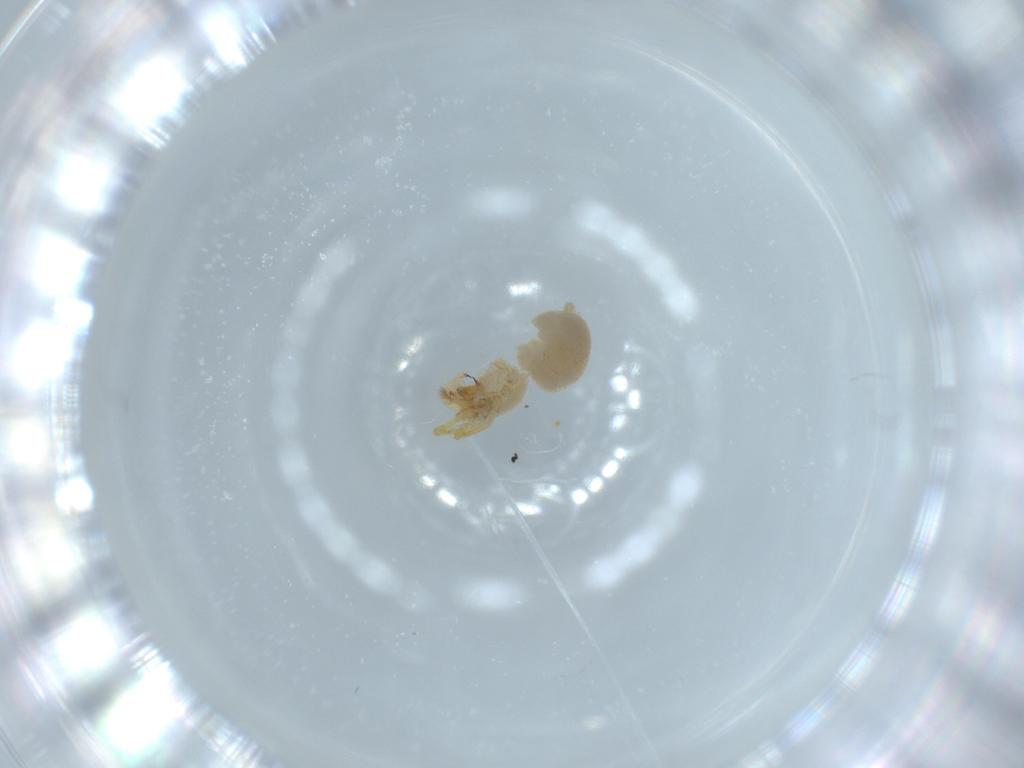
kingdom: Animalia
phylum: Arthropoda
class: Arachnida
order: Araneae
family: Oonopidae
